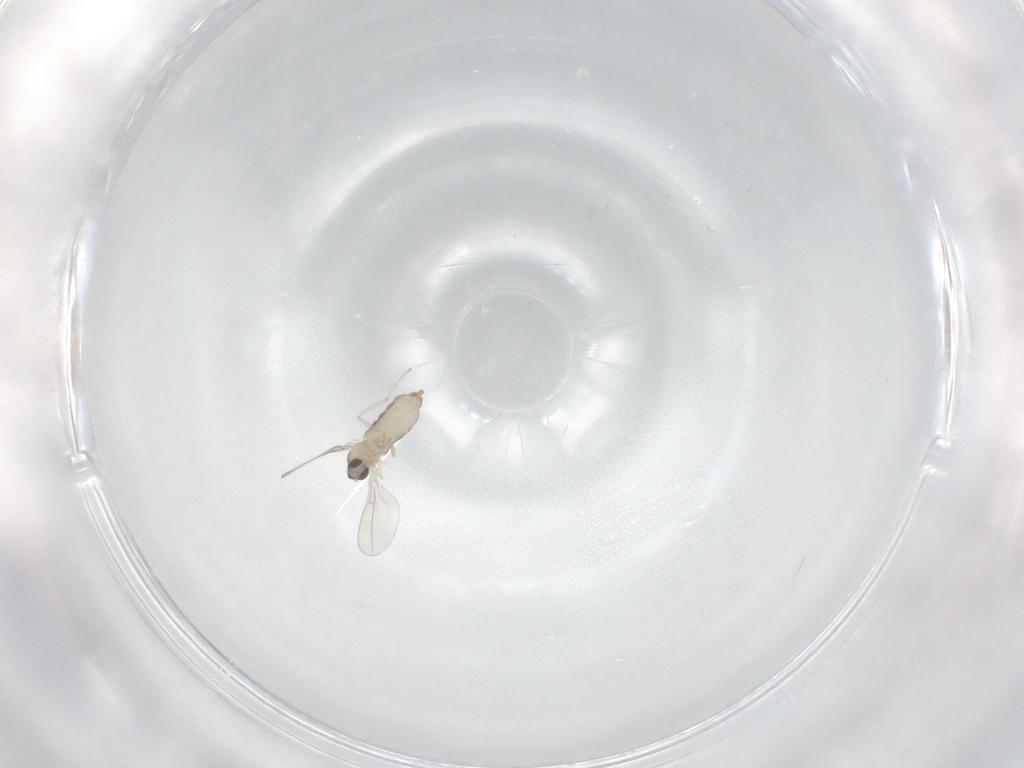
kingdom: Animalia
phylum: Arthropoda
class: Insecta
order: Diptera
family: Cecidomyiidae
